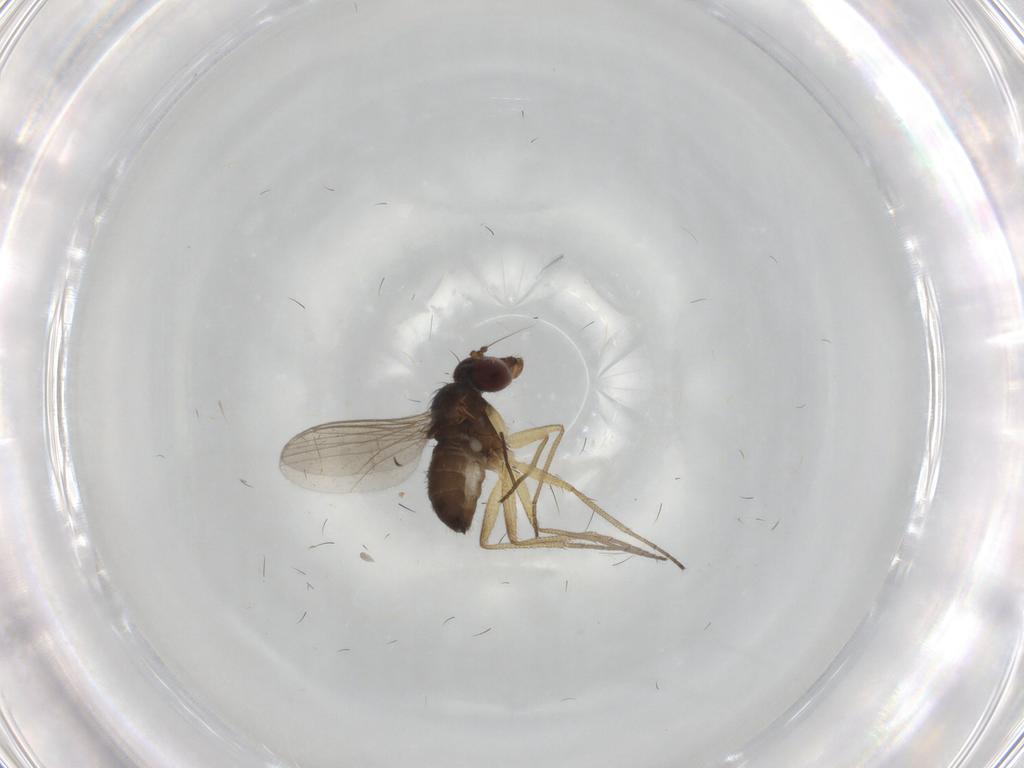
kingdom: Animalia
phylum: Arthropoda
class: Insecta
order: Diptera
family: Dolichopodidae
